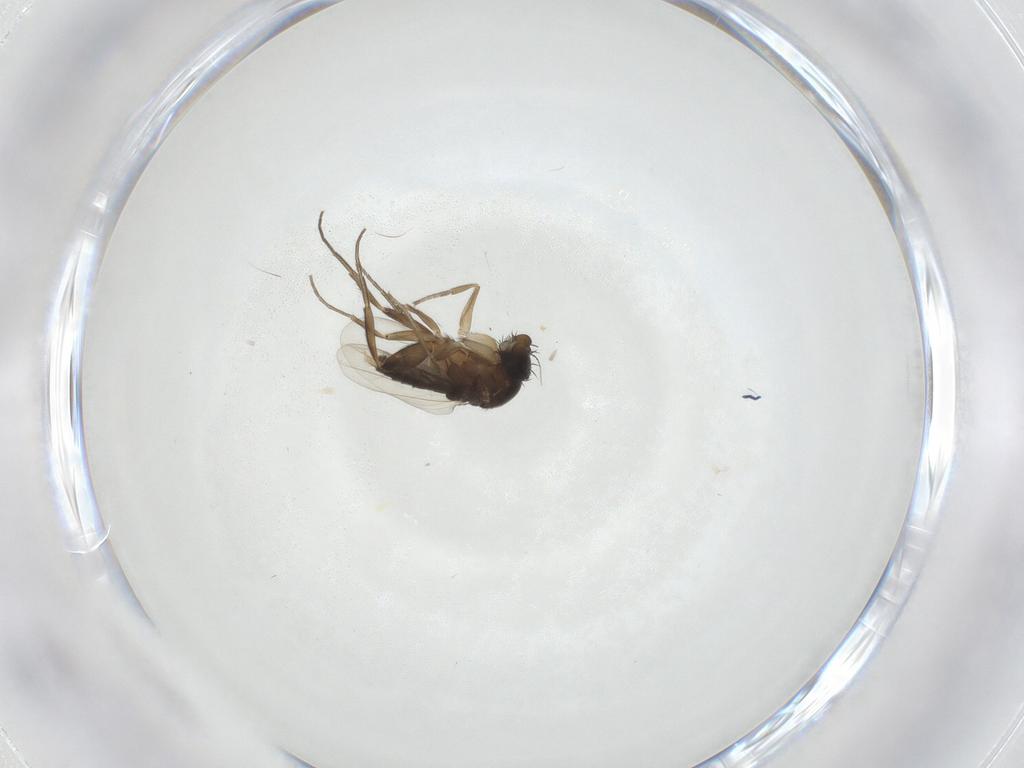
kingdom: Animalia
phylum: Arthropoda
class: Insecta
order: Diptera
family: Phoridae
